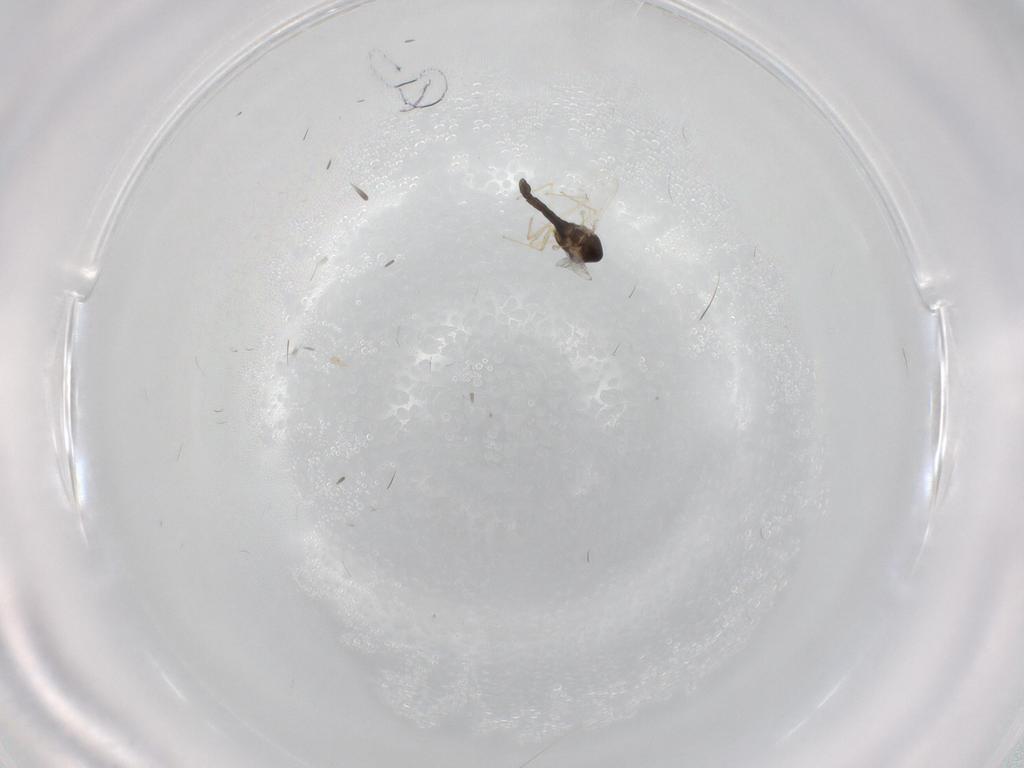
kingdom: Animalia
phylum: Arthropoda
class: Insecta
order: Diptera
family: Chironomidae
